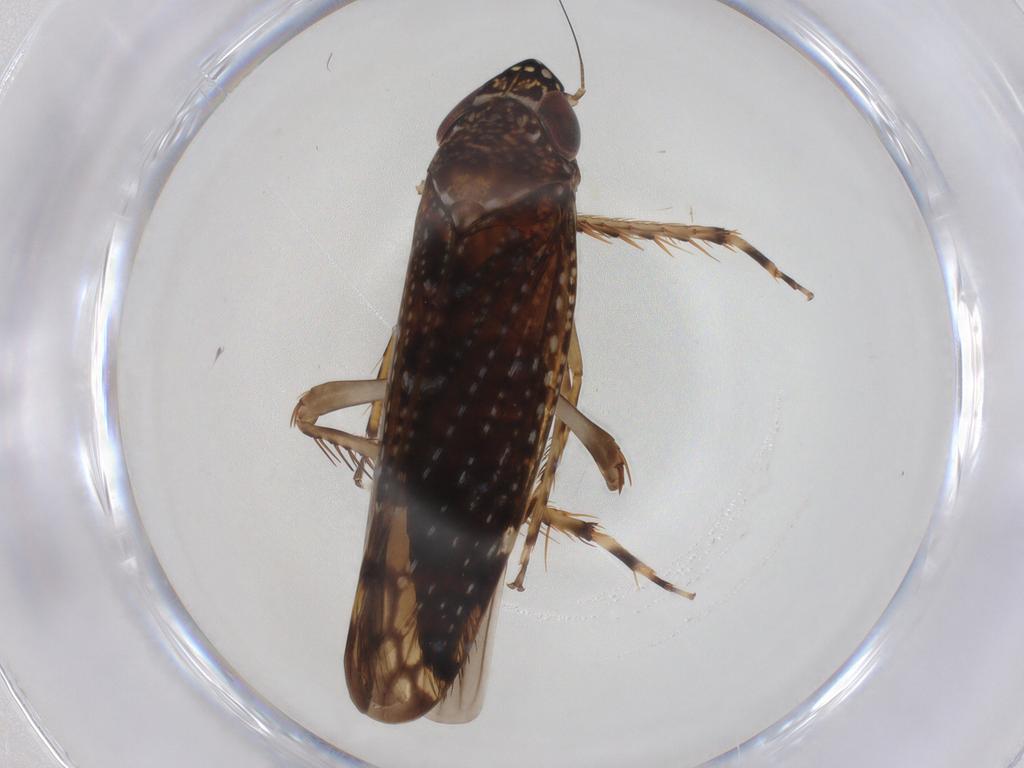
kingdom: Animalia
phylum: Arthropoda
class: Insecta
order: Hemiptera
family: Cicadellidae
